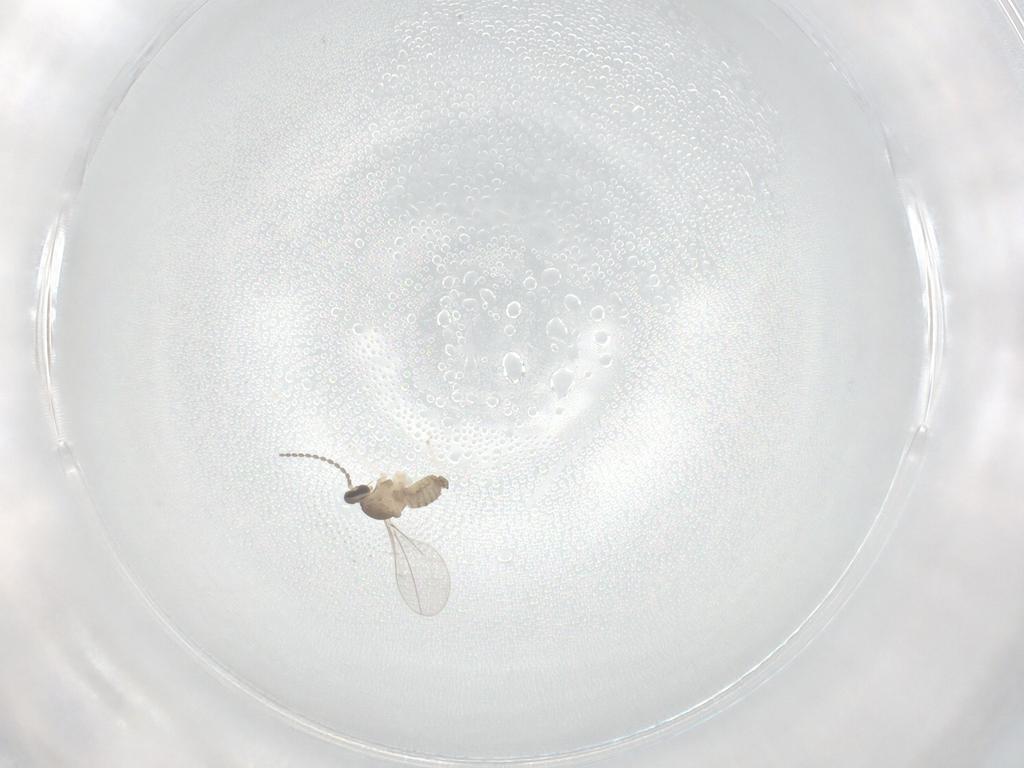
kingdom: Animalia
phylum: Arthropoda
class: Insecta
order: Diptera
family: Cecidomyiidae
